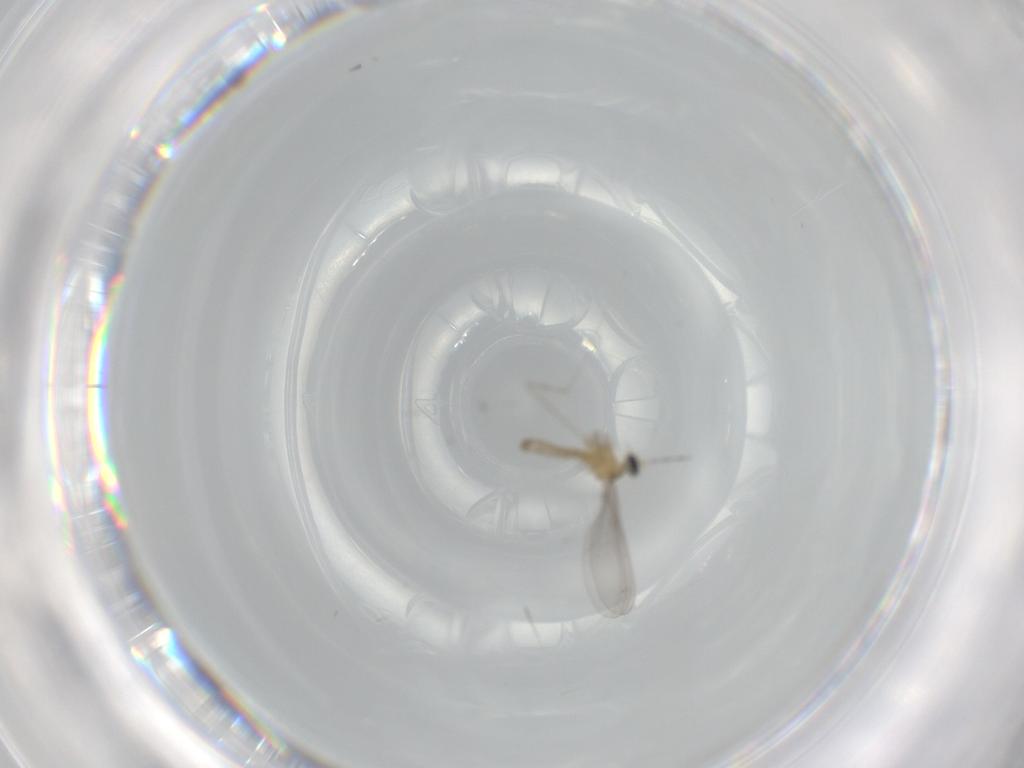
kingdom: Animalia
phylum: Arthropoda
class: Insecta
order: Diptera
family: Cecidomyiidae
